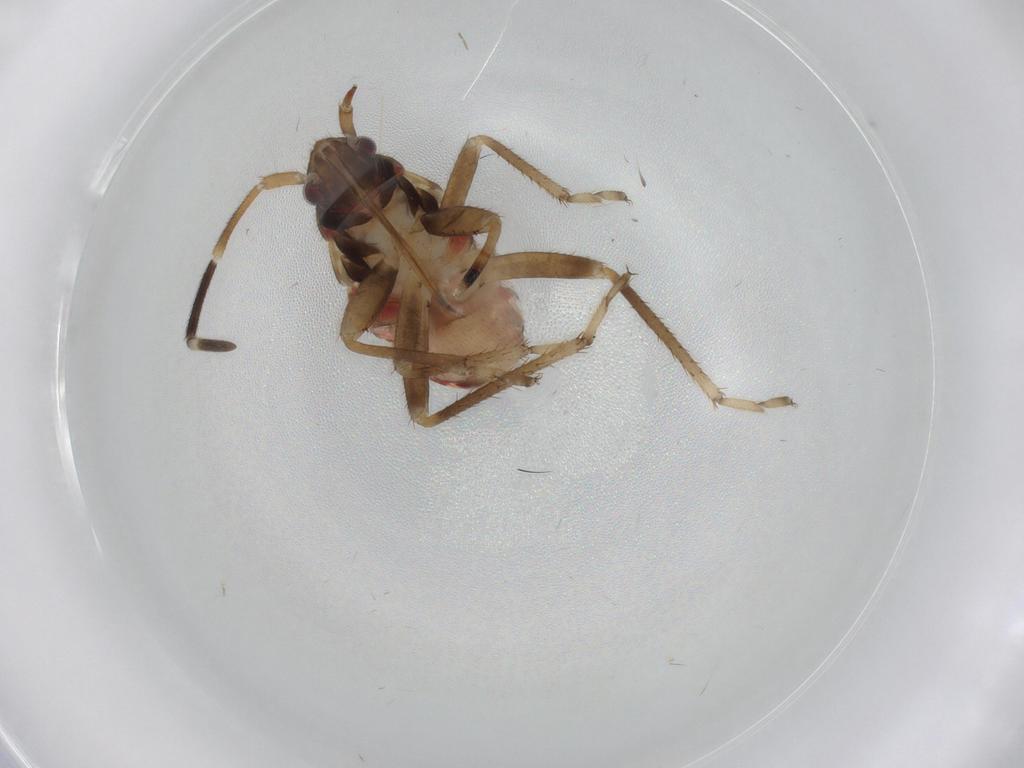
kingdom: Animalia
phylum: Arthropoda
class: Insecta
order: Hemiptera
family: Rhyparochromidae
